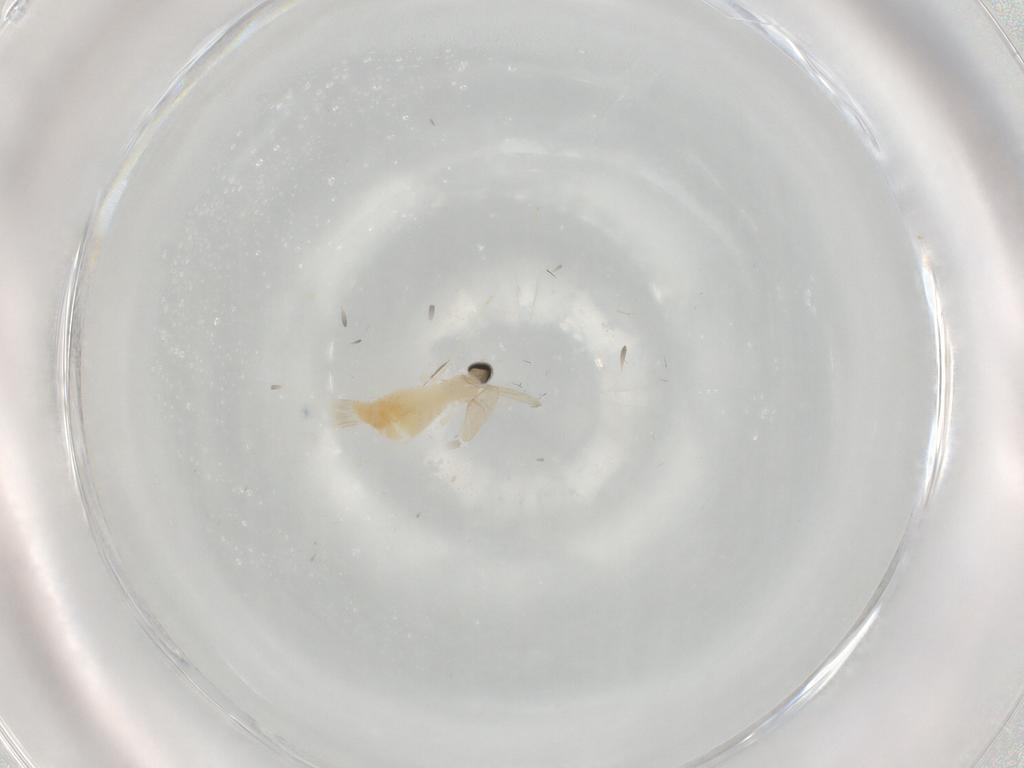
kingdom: Animalia
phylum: Arthropoda
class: Insecta
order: Diptera
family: Cecidomyiidae
